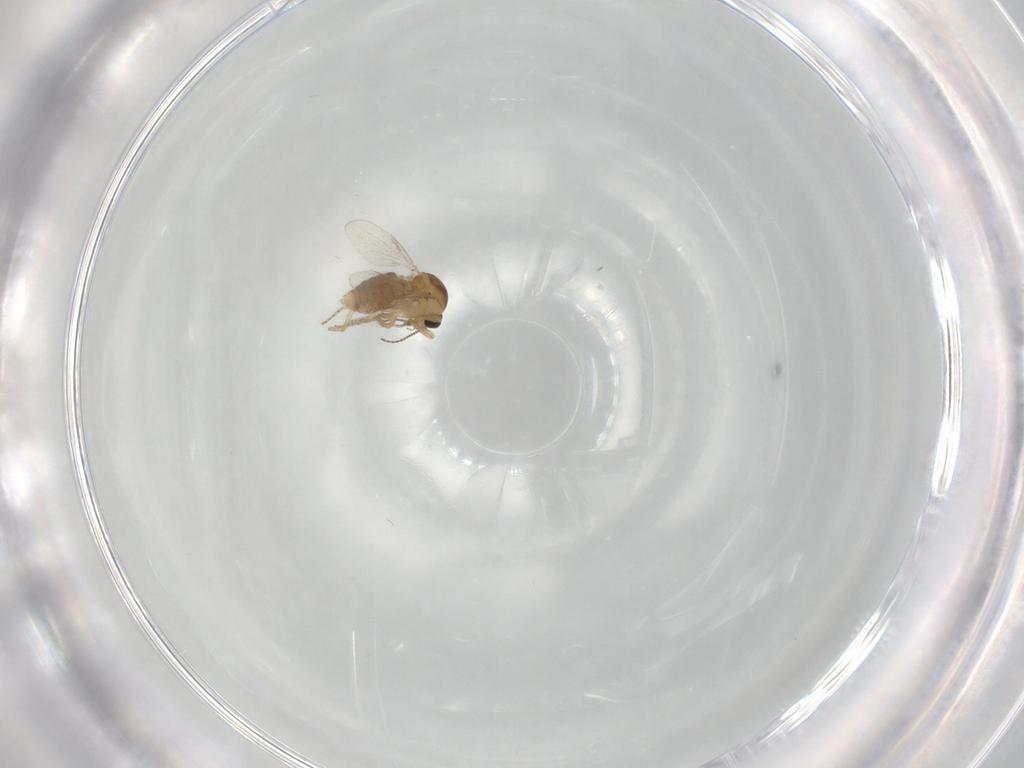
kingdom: Animalia
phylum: Arthropoda
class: Insecta
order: Diptera
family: Ceratopogonidae
